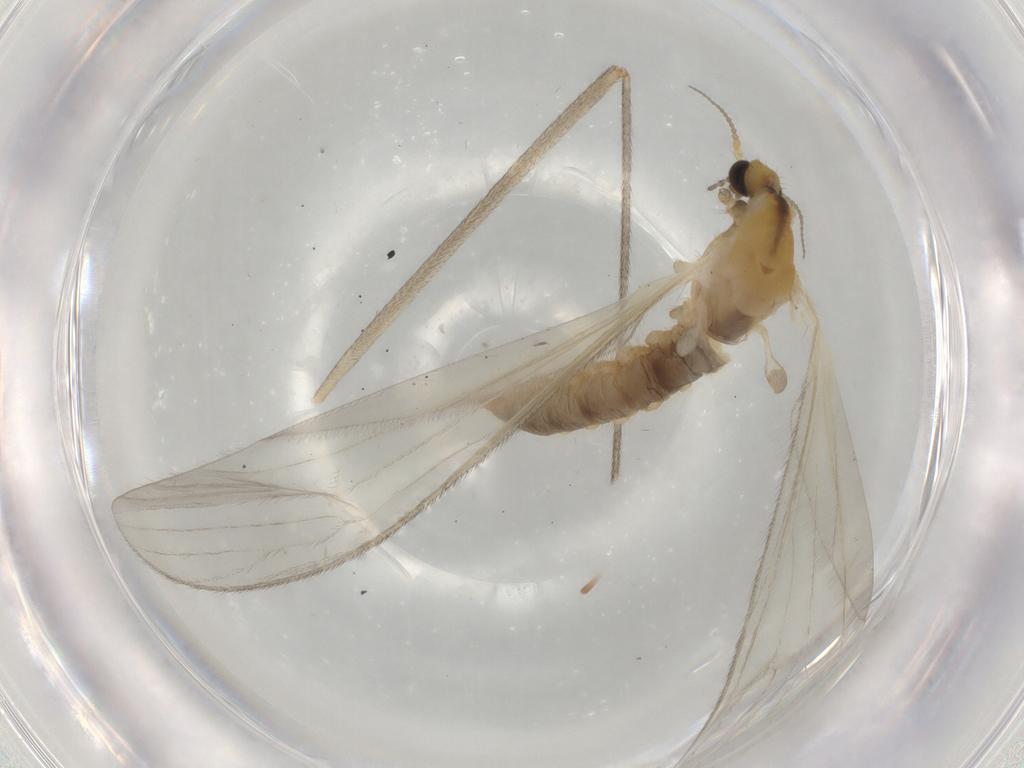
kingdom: Animalia
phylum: Arthropoda
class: Insecta
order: Diptera
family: Limoniidae
